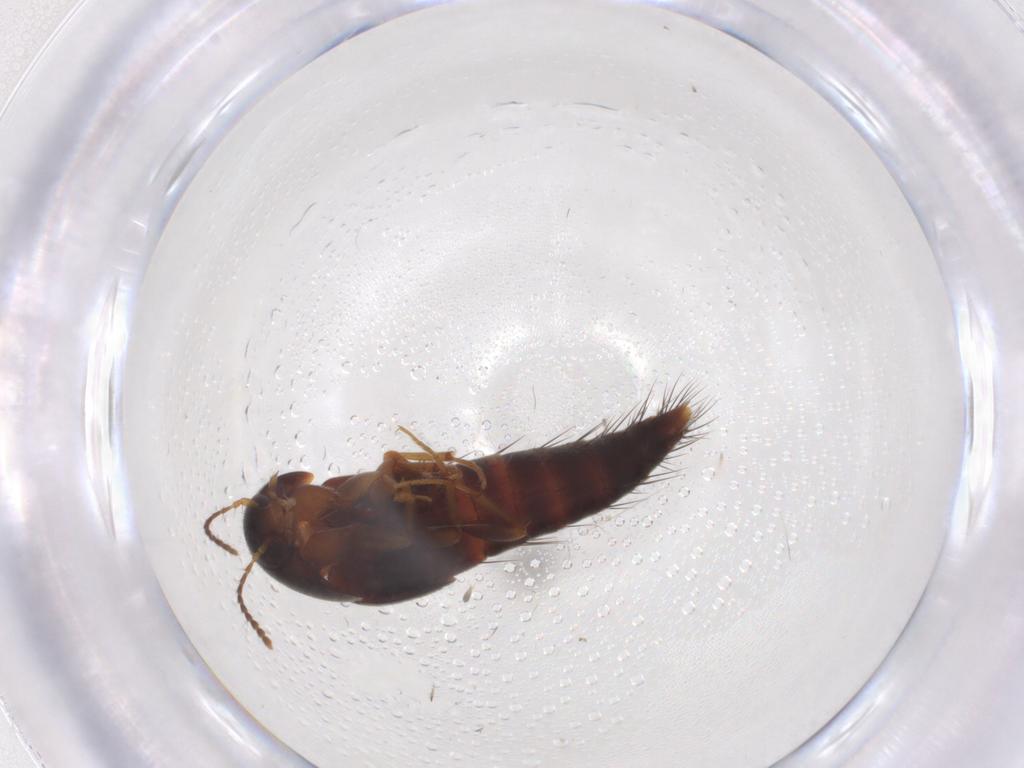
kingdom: Animalia
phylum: Arthropoda
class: Insecta
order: Coleoptera
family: Staphylinidae
